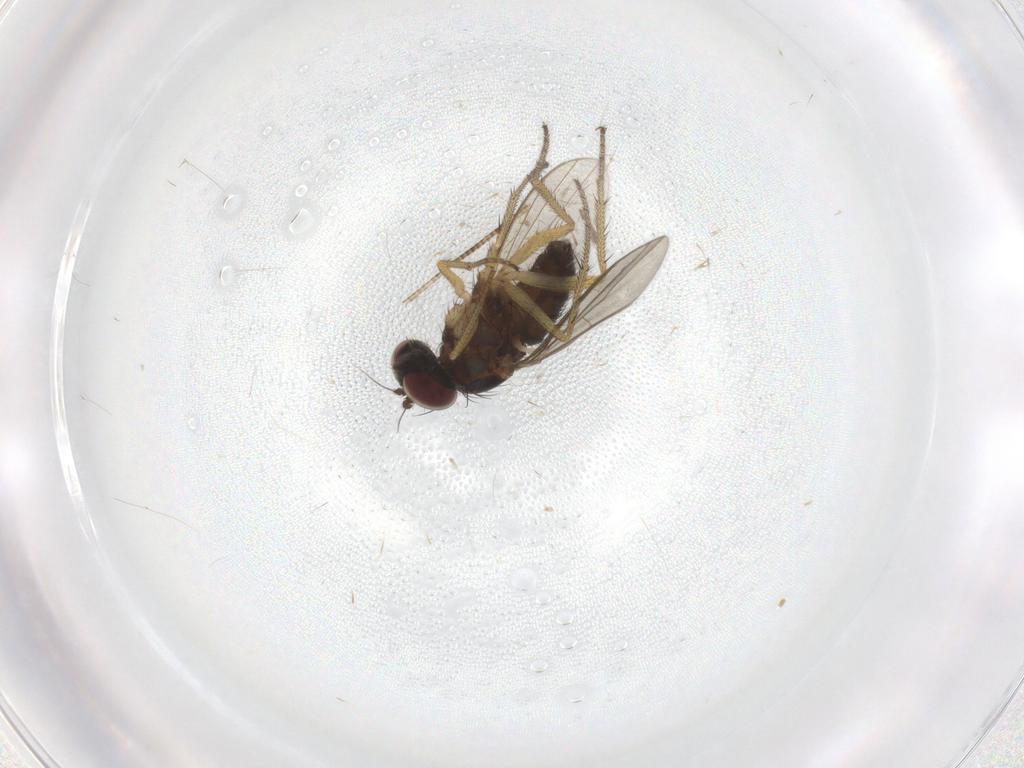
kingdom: Animalia
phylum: Arthropoda
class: Insecta
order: Diptera
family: Dolichopodidae
